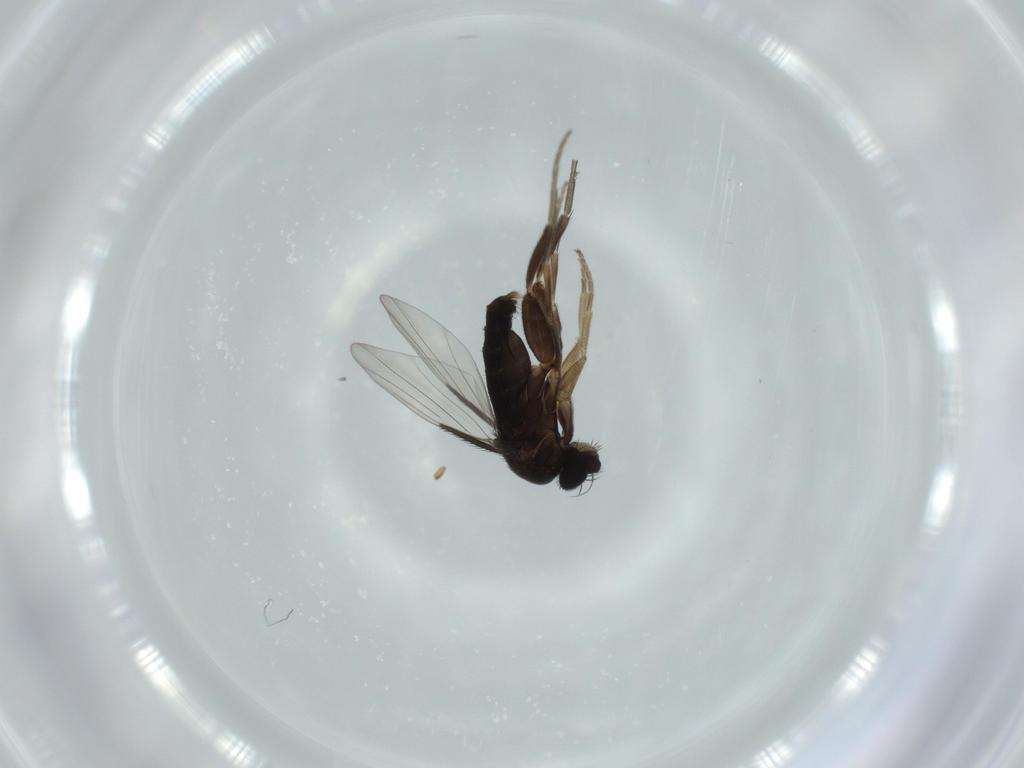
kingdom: Animalia
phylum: Arthropoda
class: Insecta
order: Diptera
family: Phoridae
